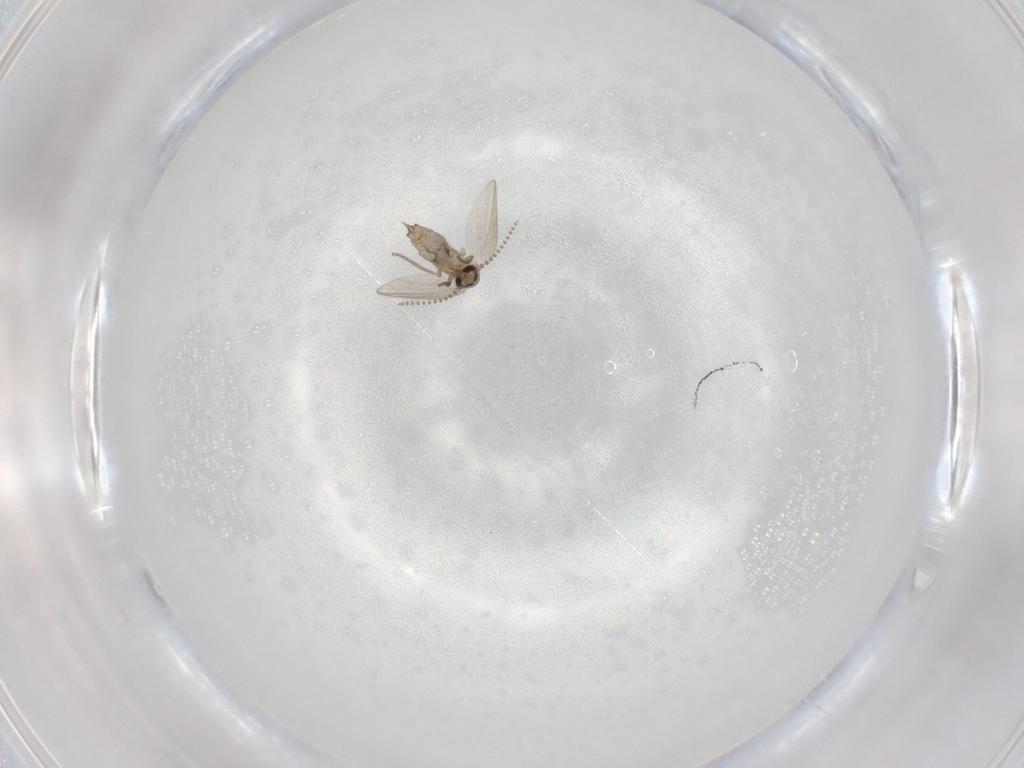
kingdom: Animalia
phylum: Arthropoda
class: Insecta
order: Diptera
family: Psychodidae
